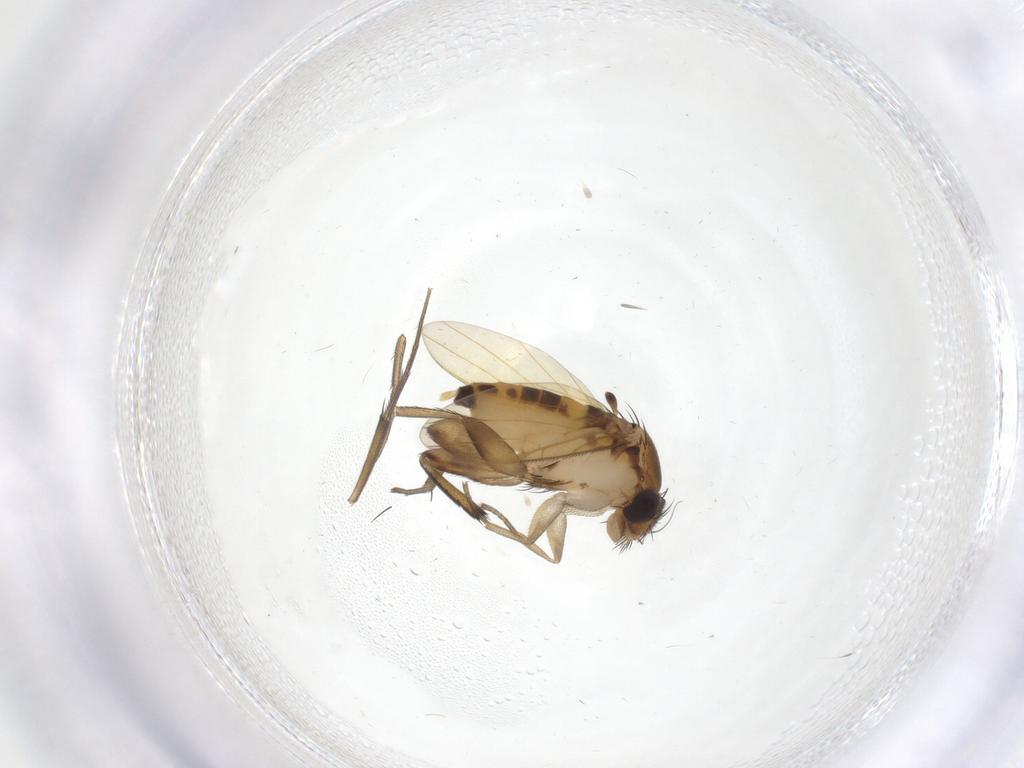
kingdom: Animalia
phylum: Arthropoda
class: Insecta
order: Diptera
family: Phoridae
